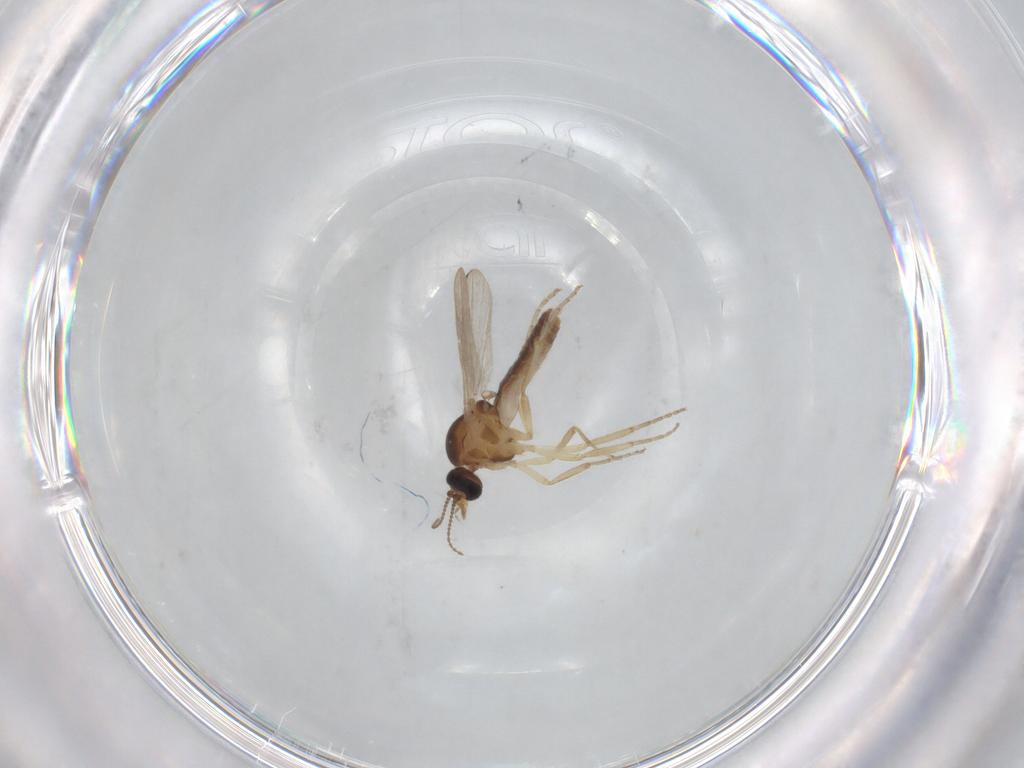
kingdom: Animalia
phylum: Arthropoda
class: Insecta
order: Diptera
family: Ceratopogonidae
